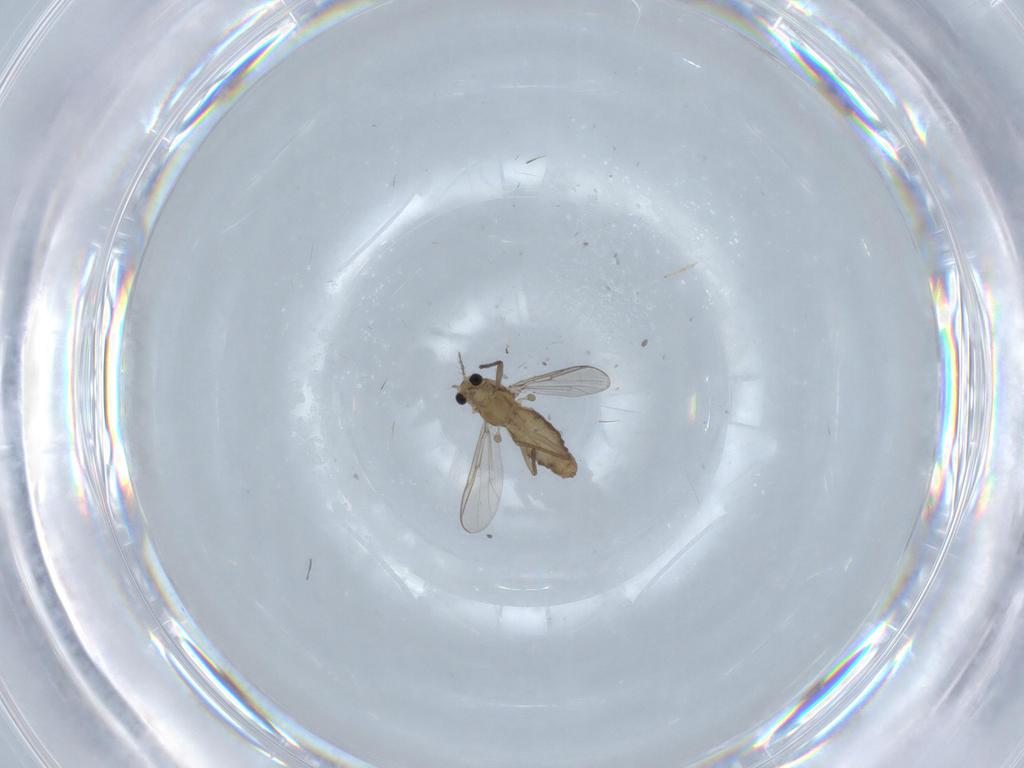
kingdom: Animalia
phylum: Arthropoda
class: Insecta
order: Diptera
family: Chironomidae
